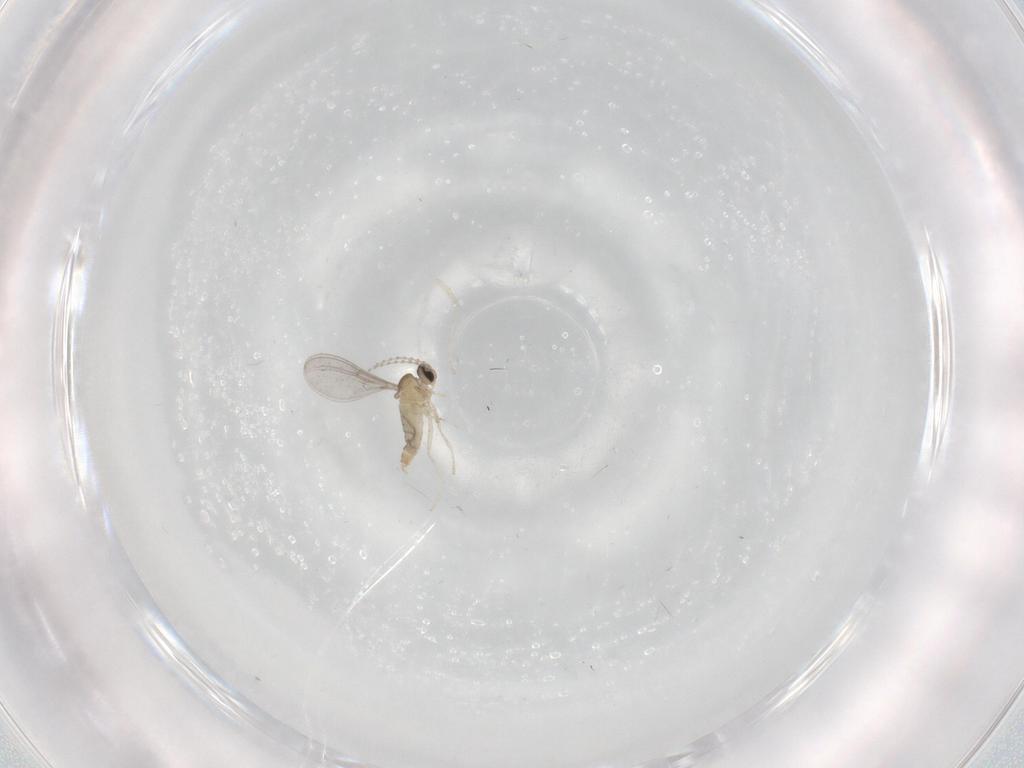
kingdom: Animalia
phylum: Arthropoda
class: Insecta
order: Diptera
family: Cecidomyiidae
